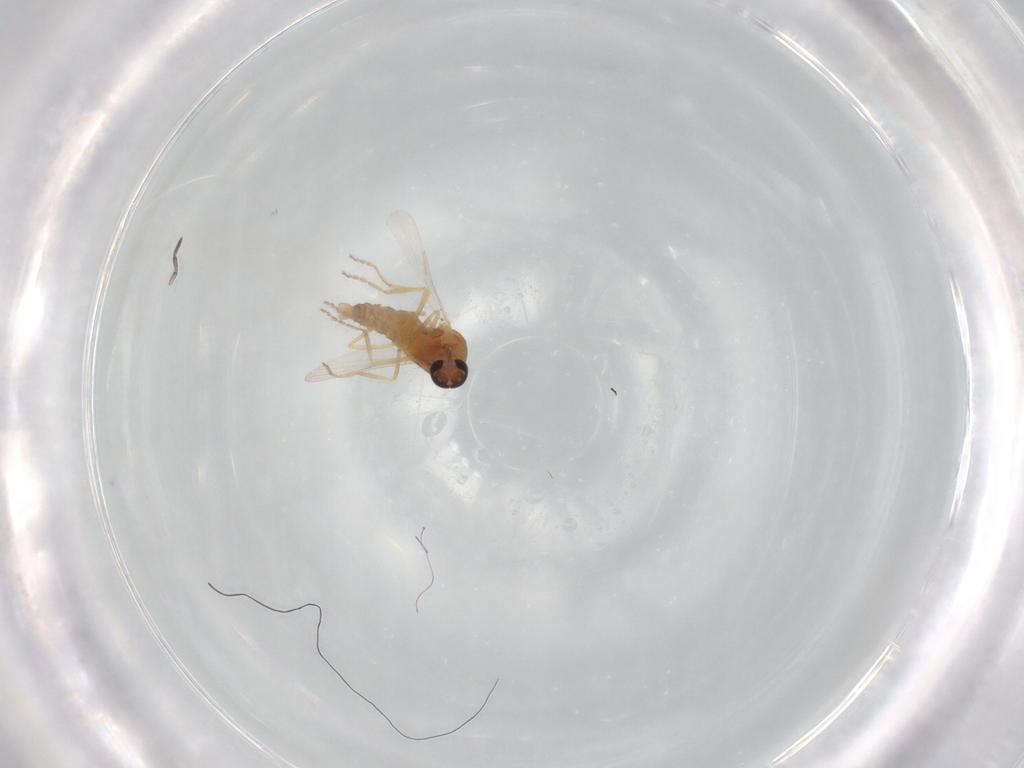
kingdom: Animalia
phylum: Arthropoda
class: Insecta
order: Diptera
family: Ceratopogonidae
